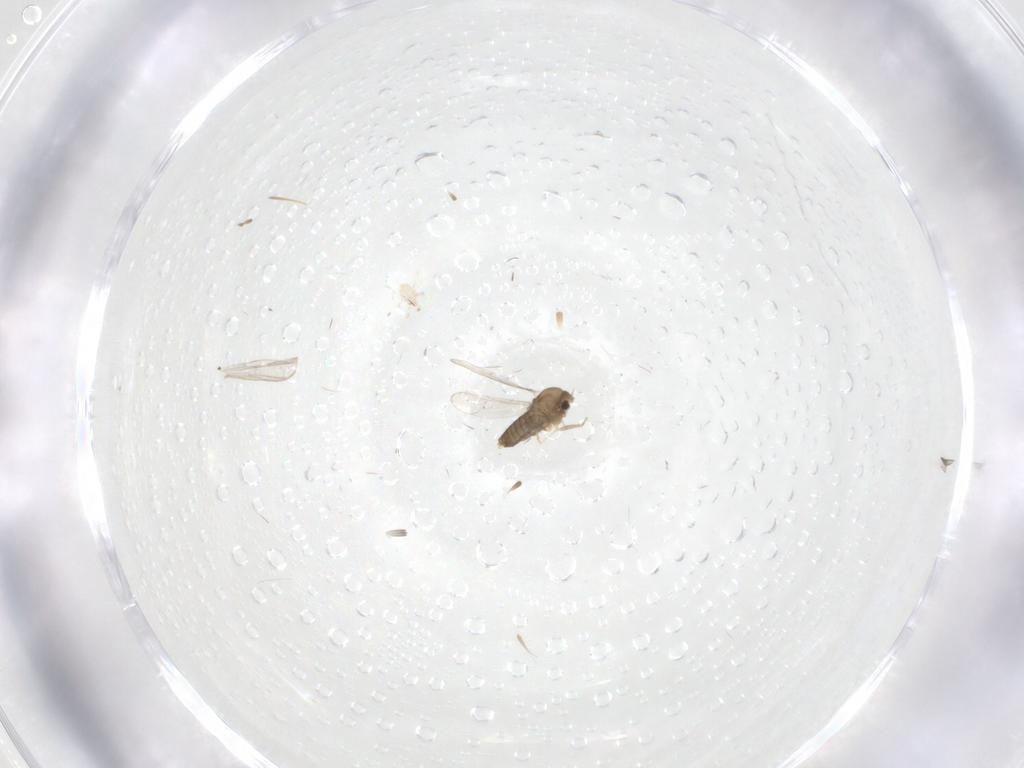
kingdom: Animalia
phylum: Arthropoda
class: Insecta
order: Diptera
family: Chironomidae
